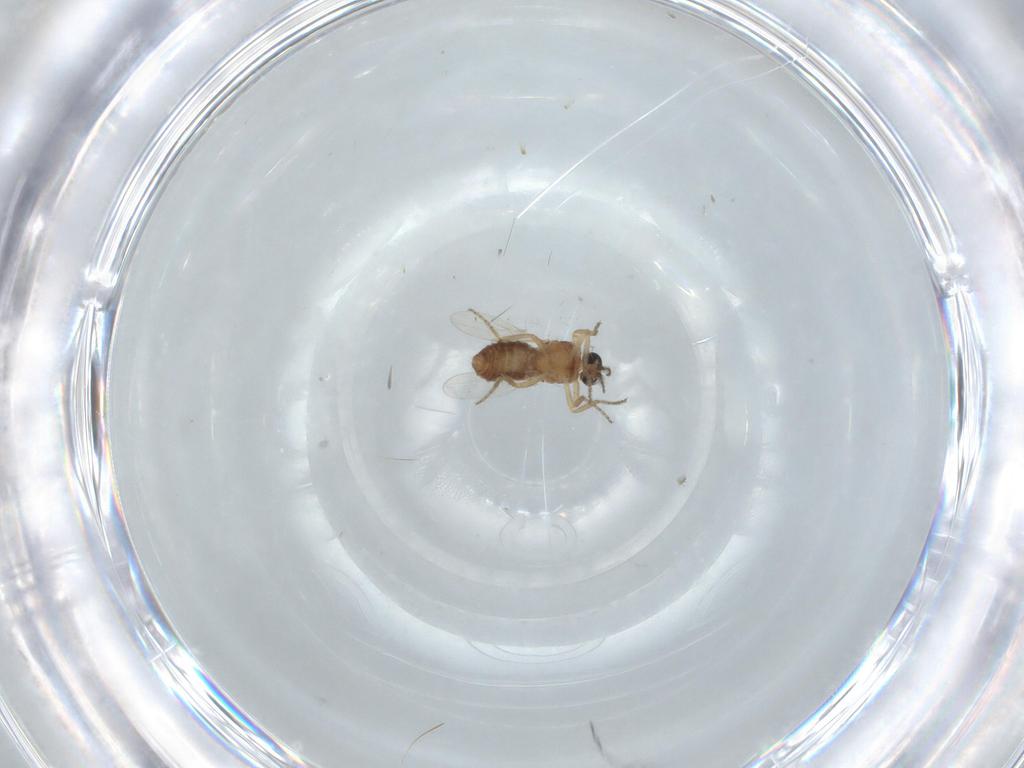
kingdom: Animalia
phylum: Arthropoda
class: Insecta
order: Diptera
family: Ceratopogonidae
